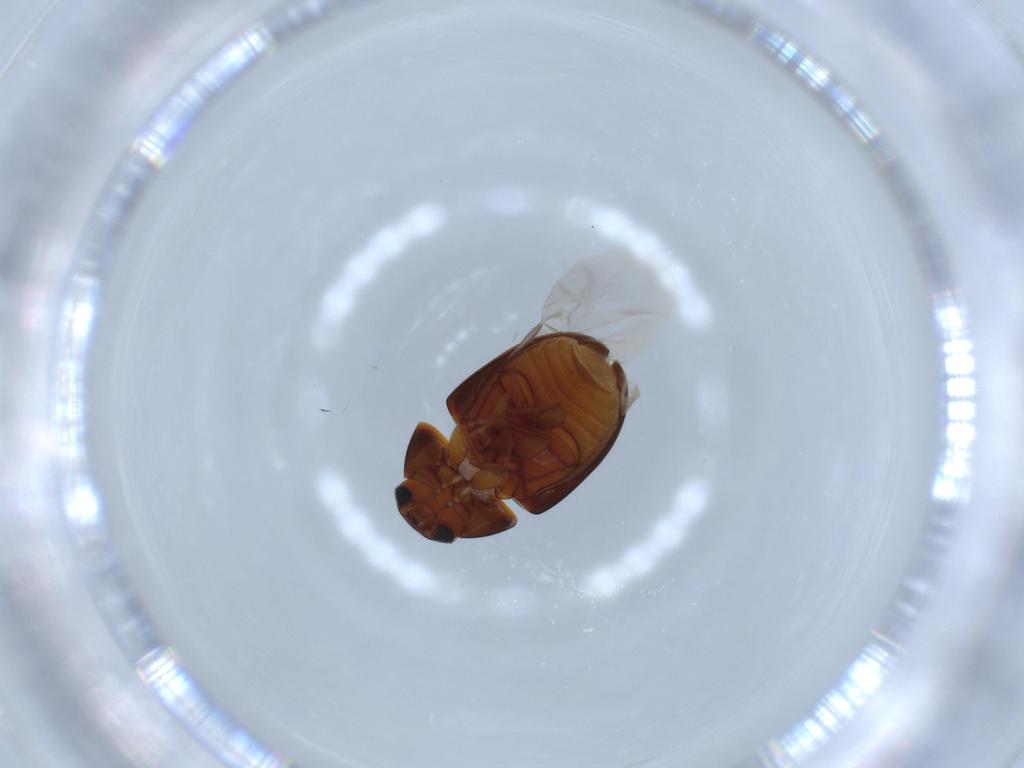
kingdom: Animalia
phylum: Arthropoda
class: Insecta
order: Coleoptera
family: Phalacridae
